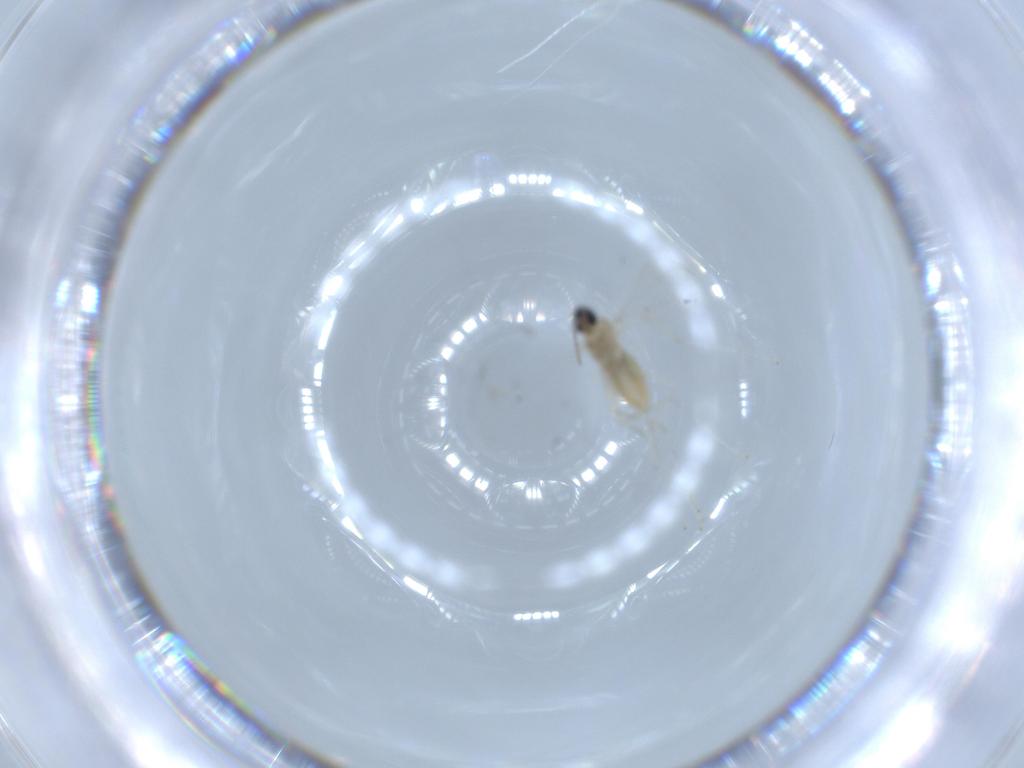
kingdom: Animalia
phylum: Arthropoda
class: Insecta
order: Diptera
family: Cecidomyiidae
